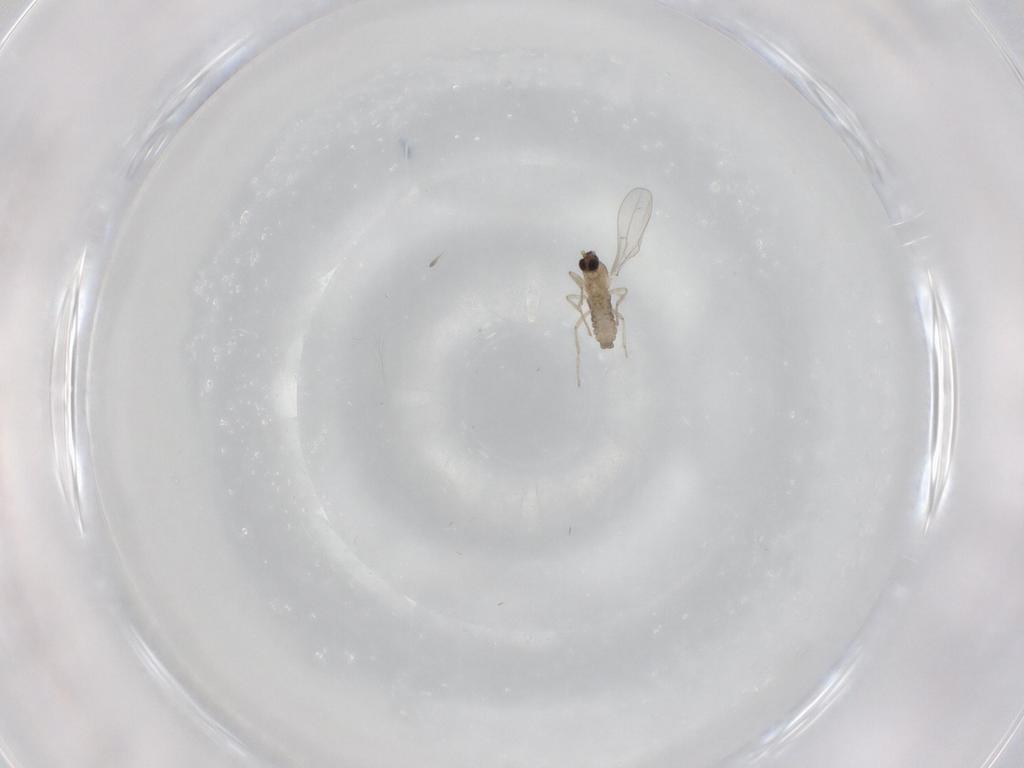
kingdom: Animalia
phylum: Arthropoda
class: Insecta
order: Diptera
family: Cecidomyiidae
